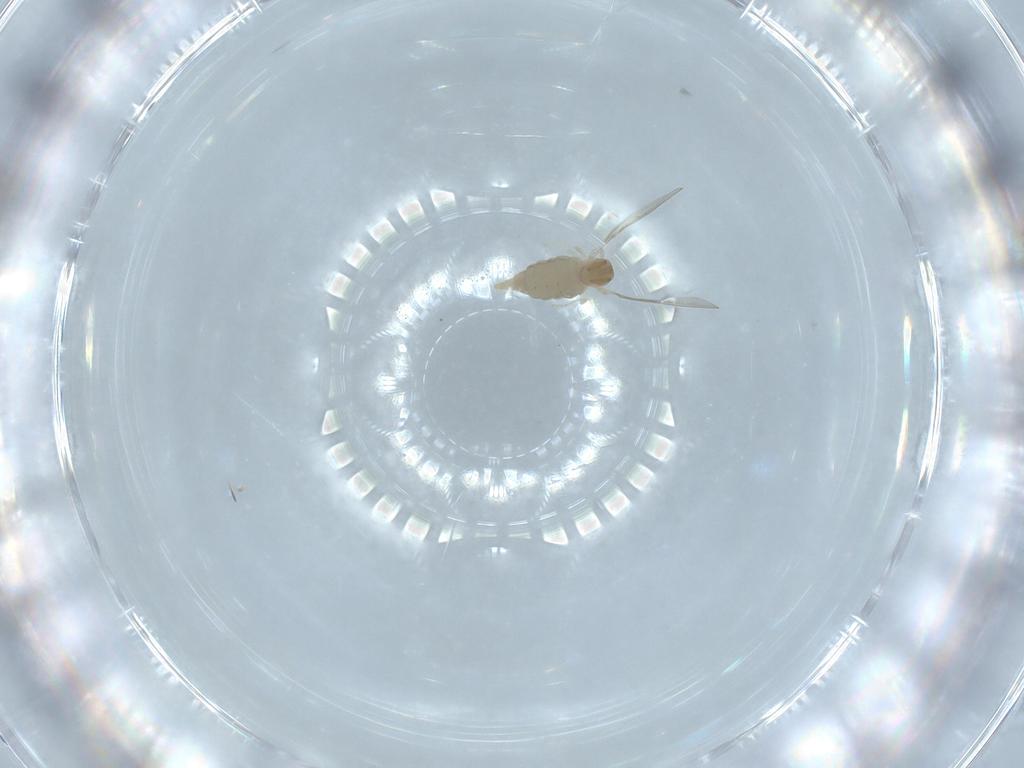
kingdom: Animalia
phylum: Arthropoda
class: Insecta
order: Diptera
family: Cecidomyiidae
